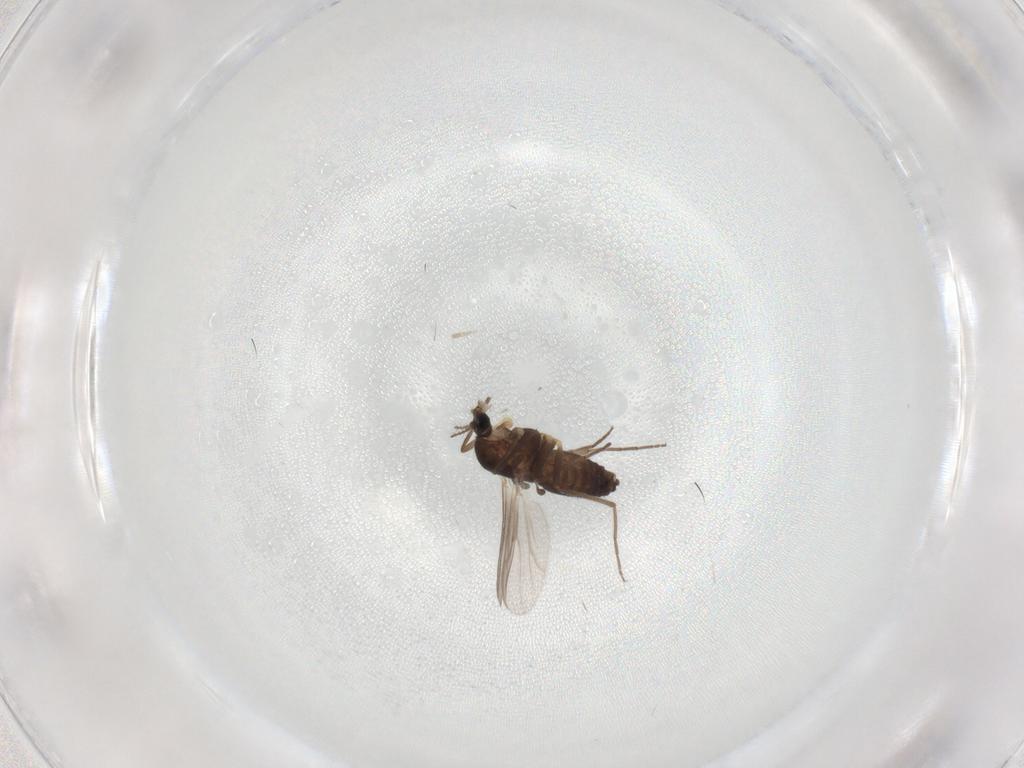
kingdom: Animalia
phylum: Arthropoda
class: Insecta
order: Diptera
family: Chironomidae
